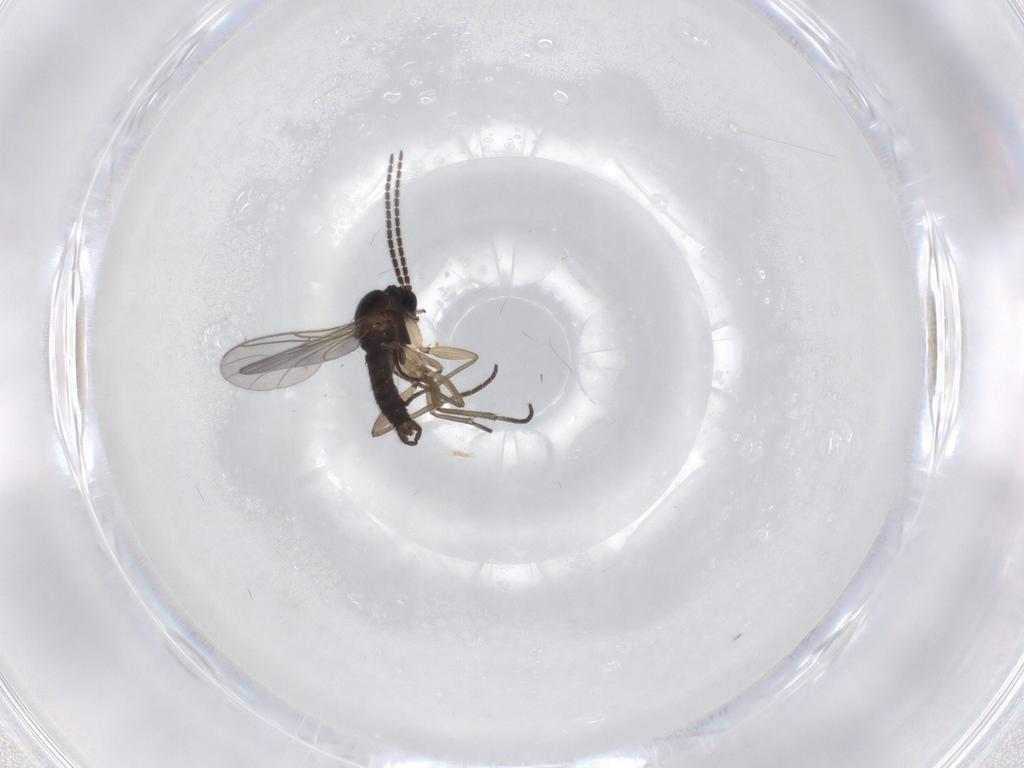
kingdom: Animalia
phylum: Arthropoda
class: Insecta
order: Diptera
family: Sciaridae
